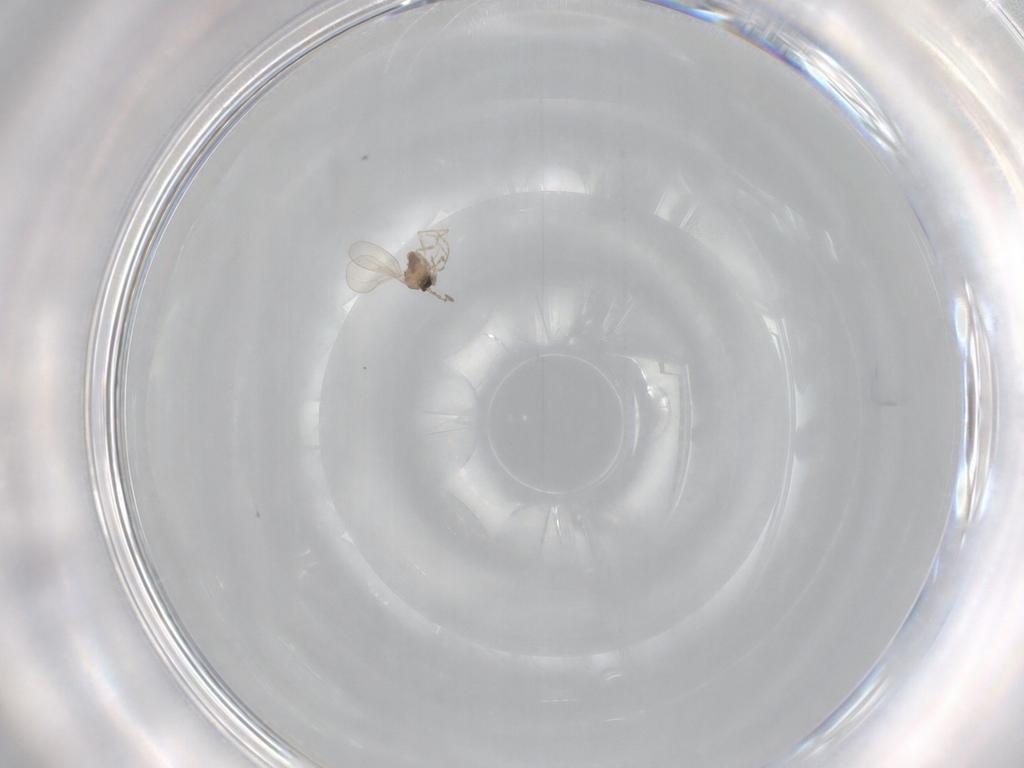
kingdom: Animalia
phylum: Arthropoda
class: Insecta
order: Diptera
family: Cecidomyiidae
